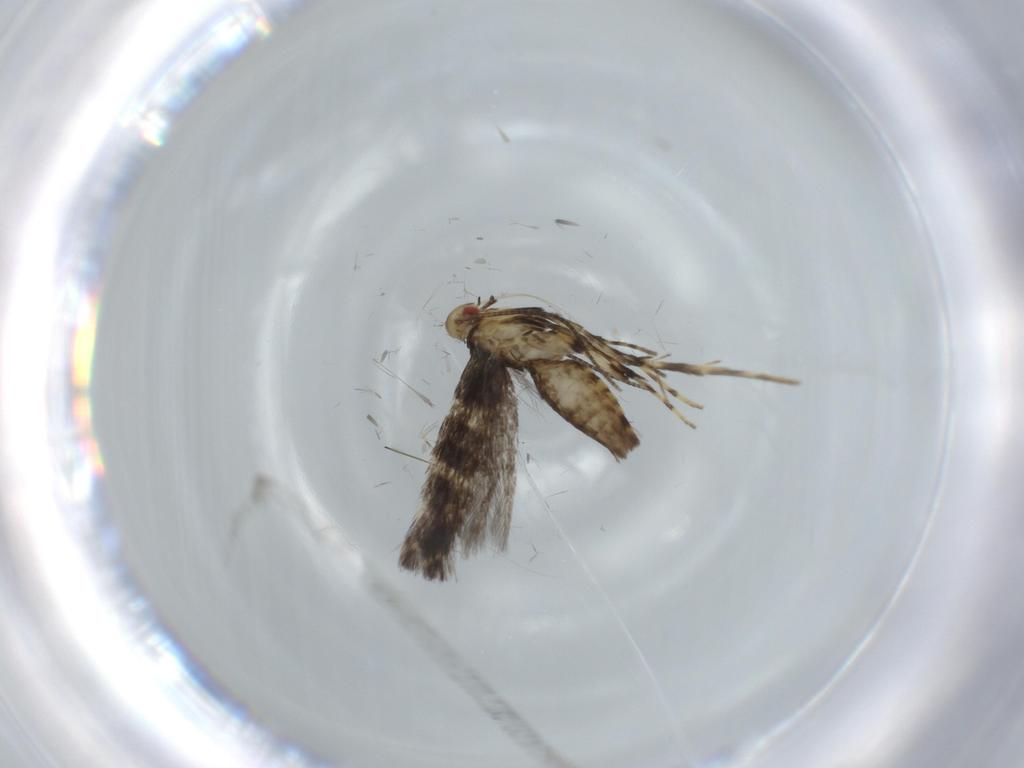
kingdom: Animalia
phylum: Arthropoda
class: Insecta
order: Lepidoptera
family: Gracillariidae
